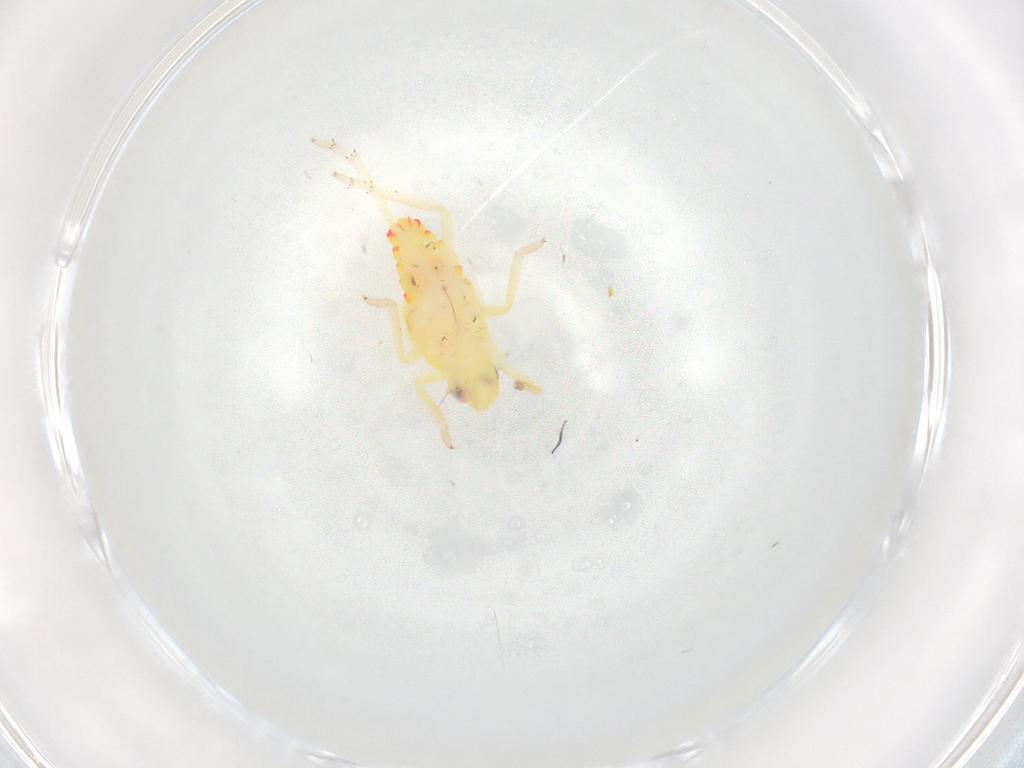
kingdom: Animalia
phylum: Arthropoda
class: Insecta
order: Hemiptera
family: Tropiduchidae
